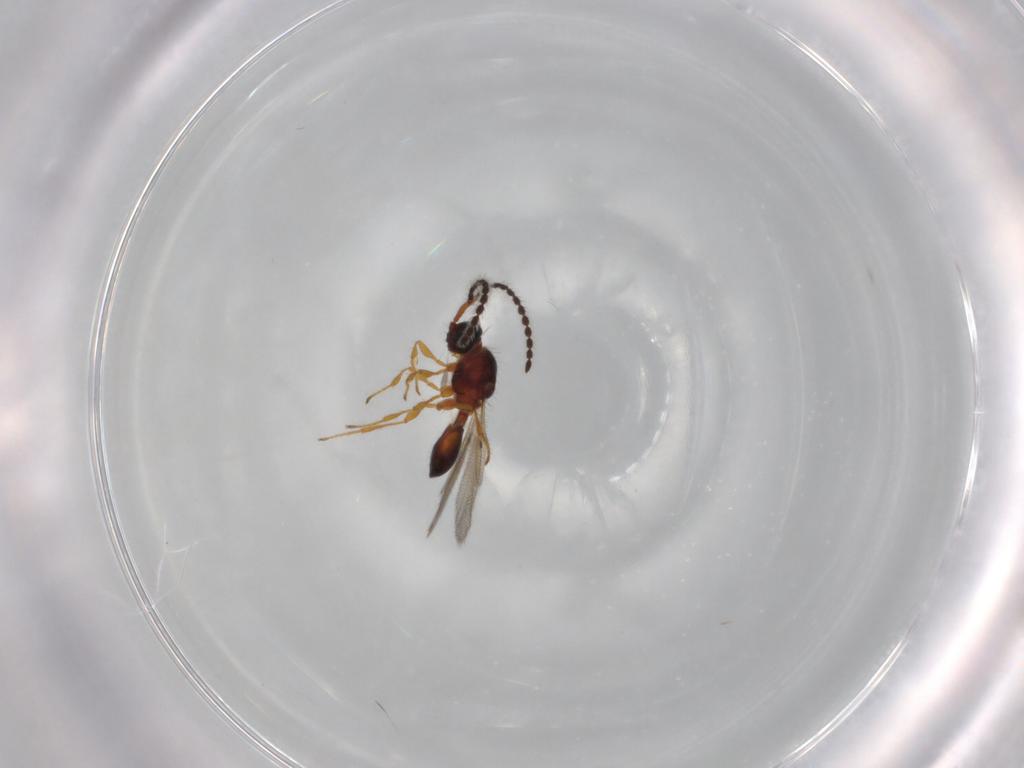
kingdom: Animalia
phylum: Arthropoda
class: Insecta
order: Hymenoptera
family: Diapriidae
